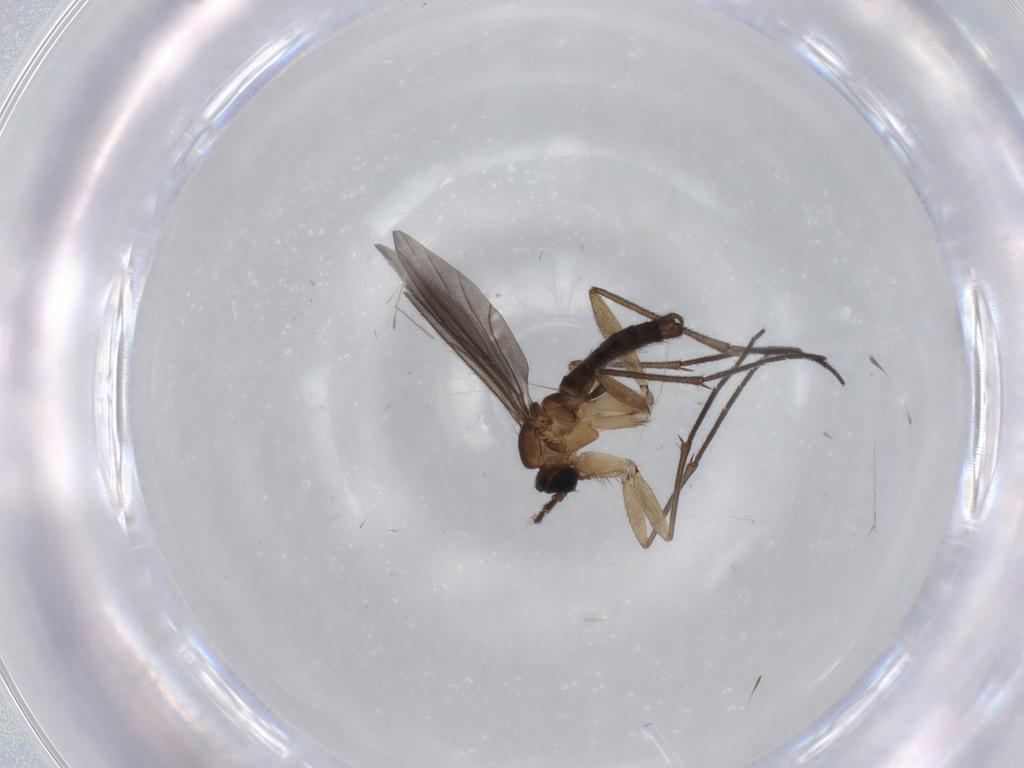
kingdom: Animalia
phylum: Arthropoda
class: Insecta
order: Diptera
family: Sciaridae
